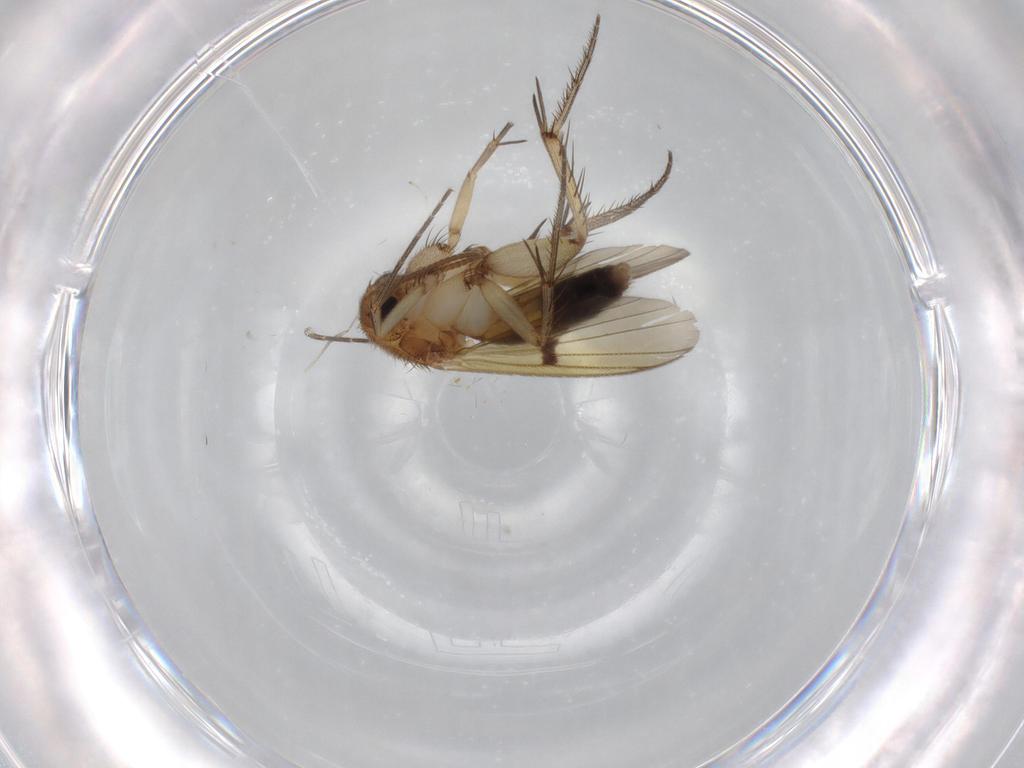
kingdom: Animalia
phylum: Arthropoda
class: Insecta
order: Diptera
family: Cecidomyiidae
